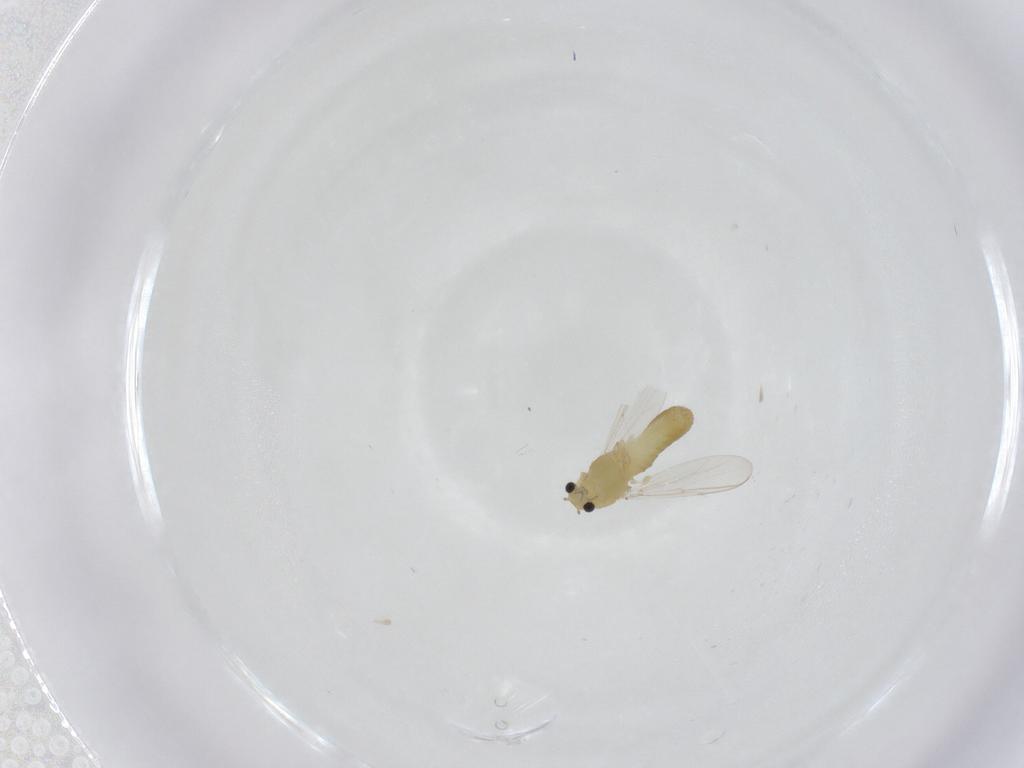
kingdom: Animalia
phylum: Arthropoda
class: Insecta
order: Diptera
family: Chironomidae
